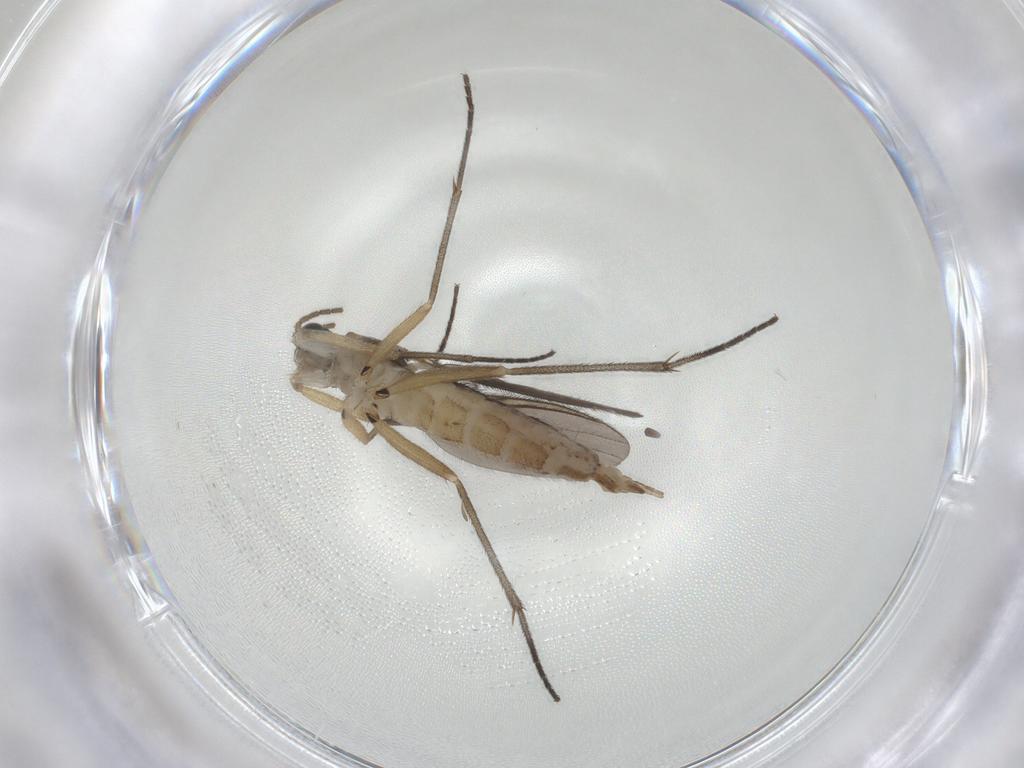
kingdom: Animalia
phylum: Arthropoda
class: Insecta
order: Diptera
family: Sciaridae
